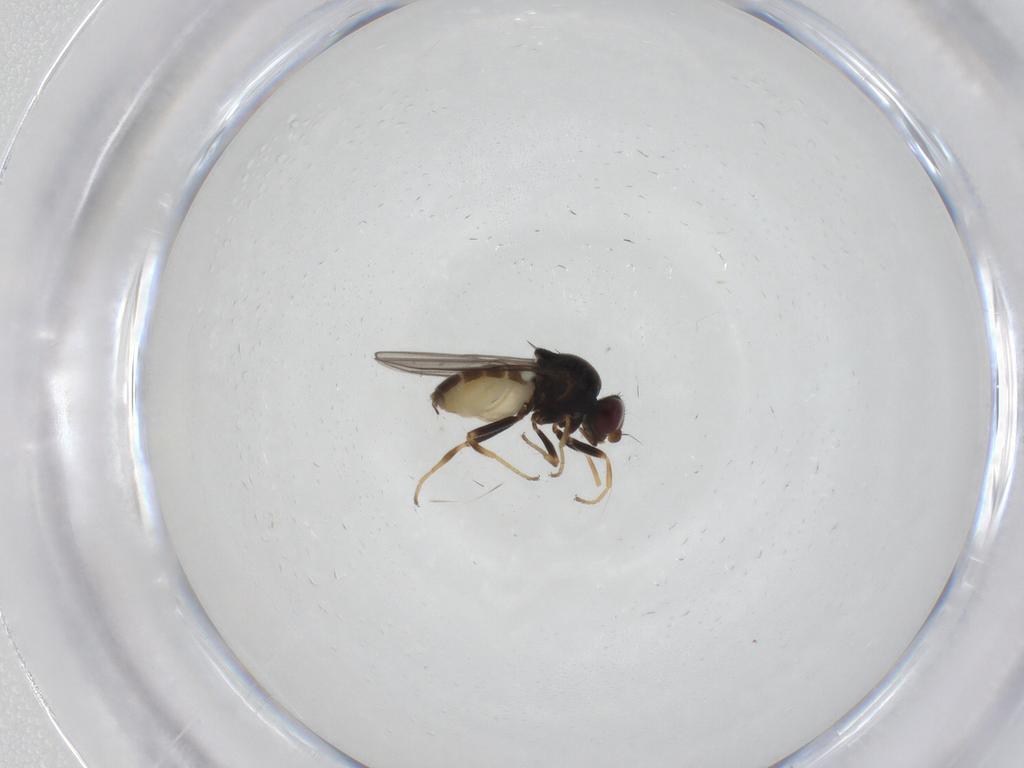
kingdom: Animalia
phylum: Arthropoda
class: Insecta
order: Diptera
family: Chloropidae
